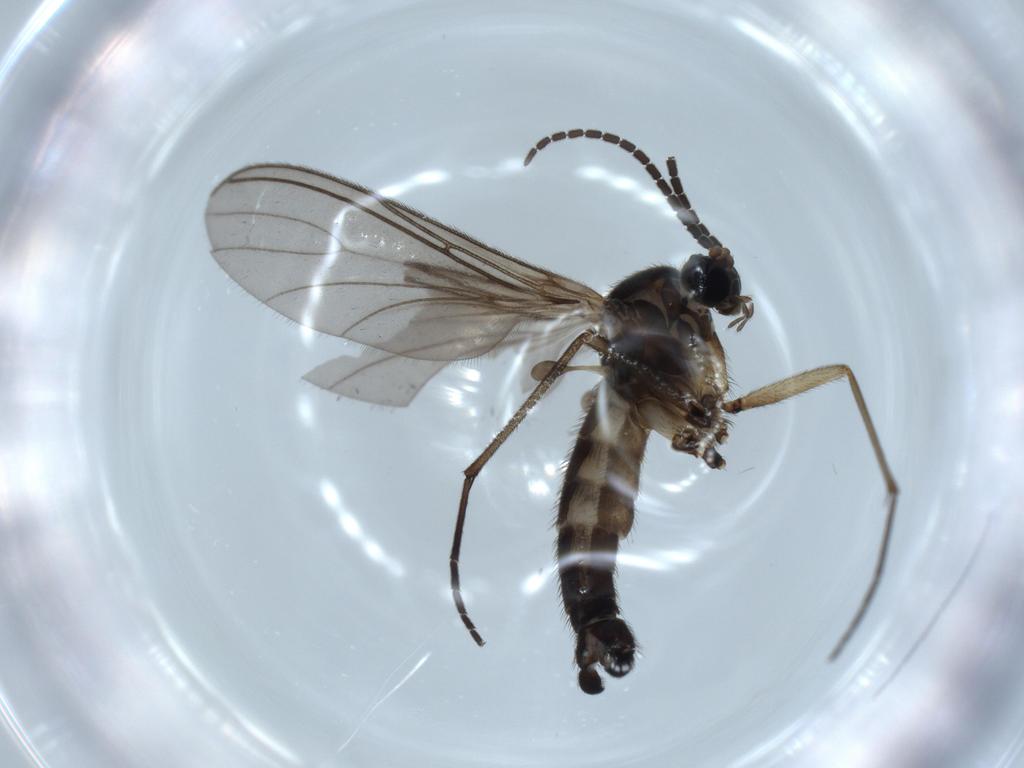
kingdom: Animalia
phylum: Arthropoda
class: Insecta
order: Diptera
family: Sciaridae
